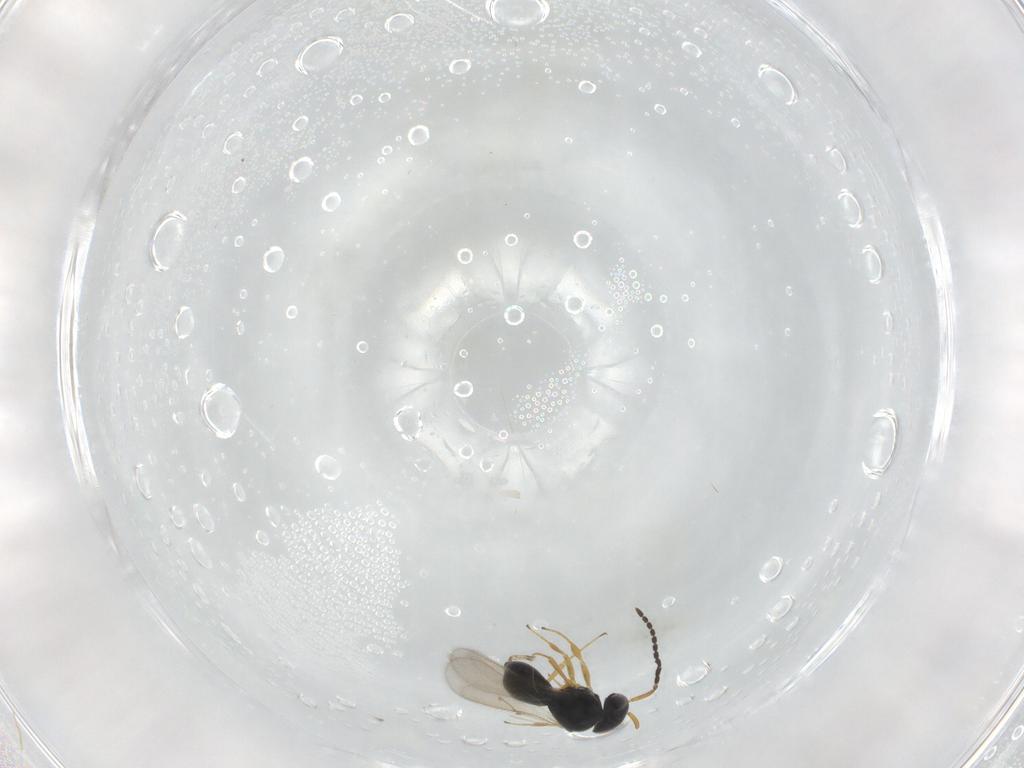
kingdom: Animalia
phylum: Arthropoda
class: Insecta
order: Hymenoptera
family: Scelionidae
